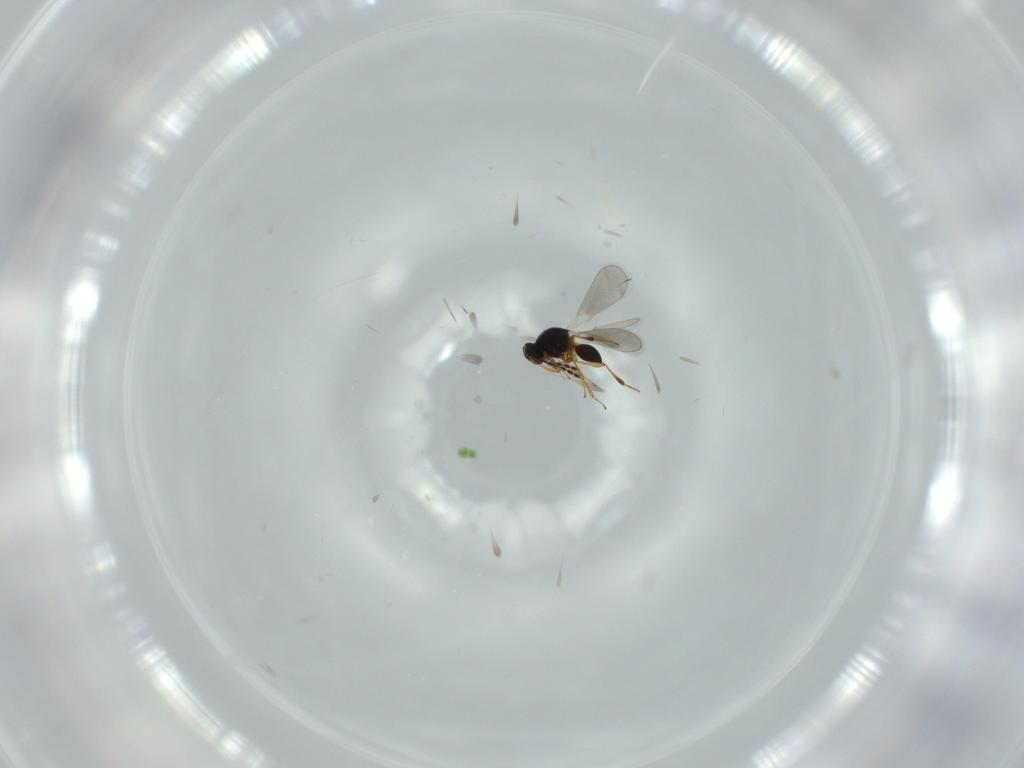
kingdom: Animalia
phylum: Arthropoda
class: Insecta
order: Hymenoptera
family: Platygastridae
